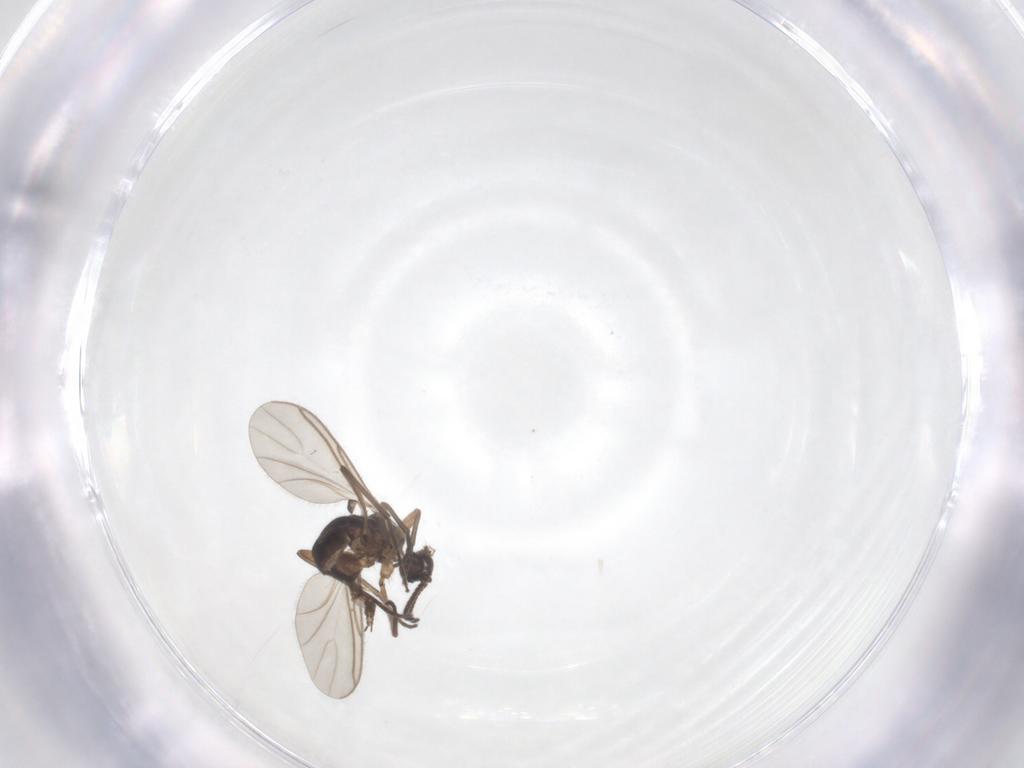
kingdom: Animalia
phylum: Arthropoda
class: Insecta
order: Diptera
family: Sciaridae
